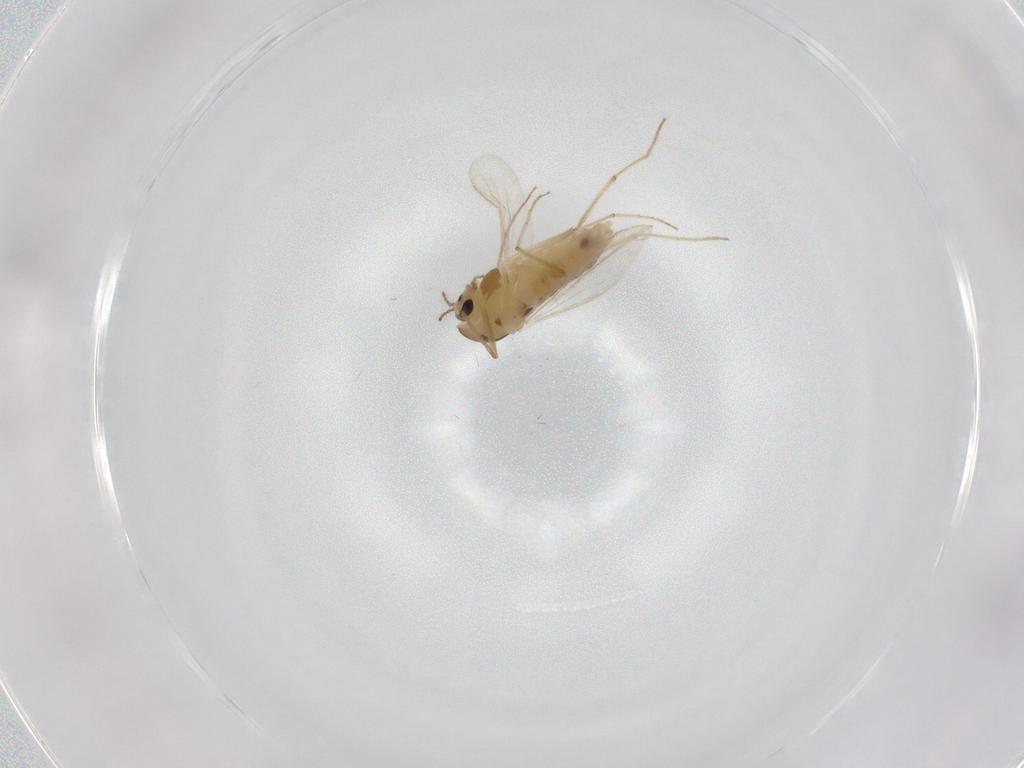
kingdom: Animalia
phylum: Arthropoda
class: Insecta
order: Diptera
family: Chironomidae
